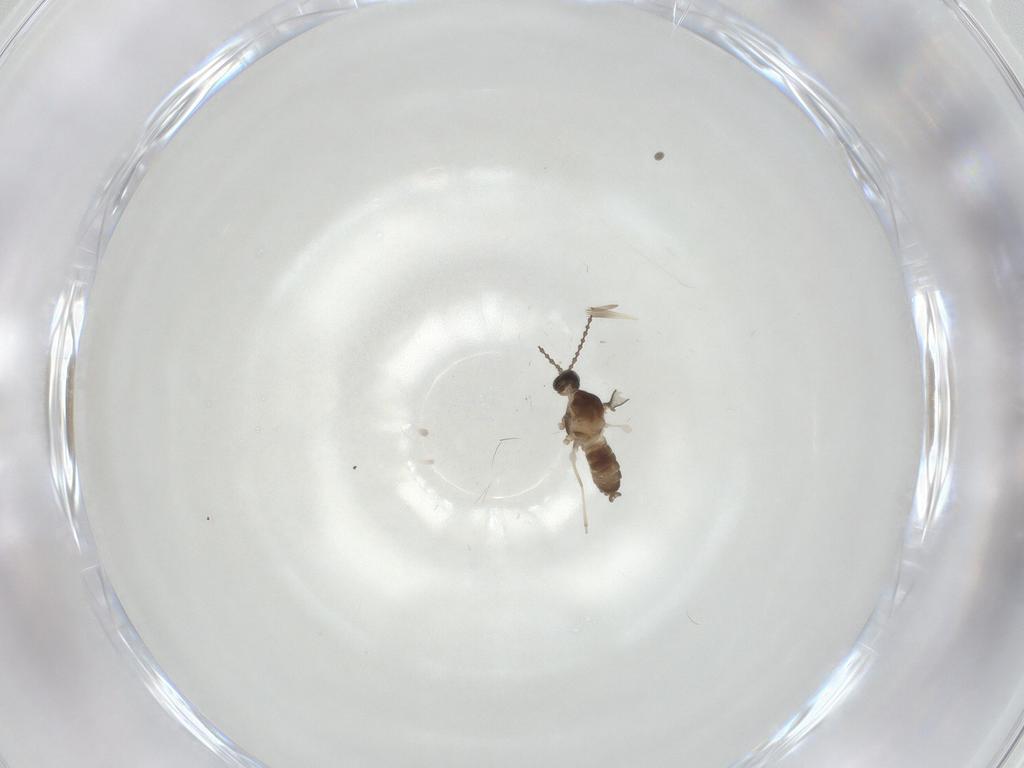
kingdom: Animalia
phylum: Arthropoda
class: Insecta
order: Diptera
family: Cecidomyiidae
